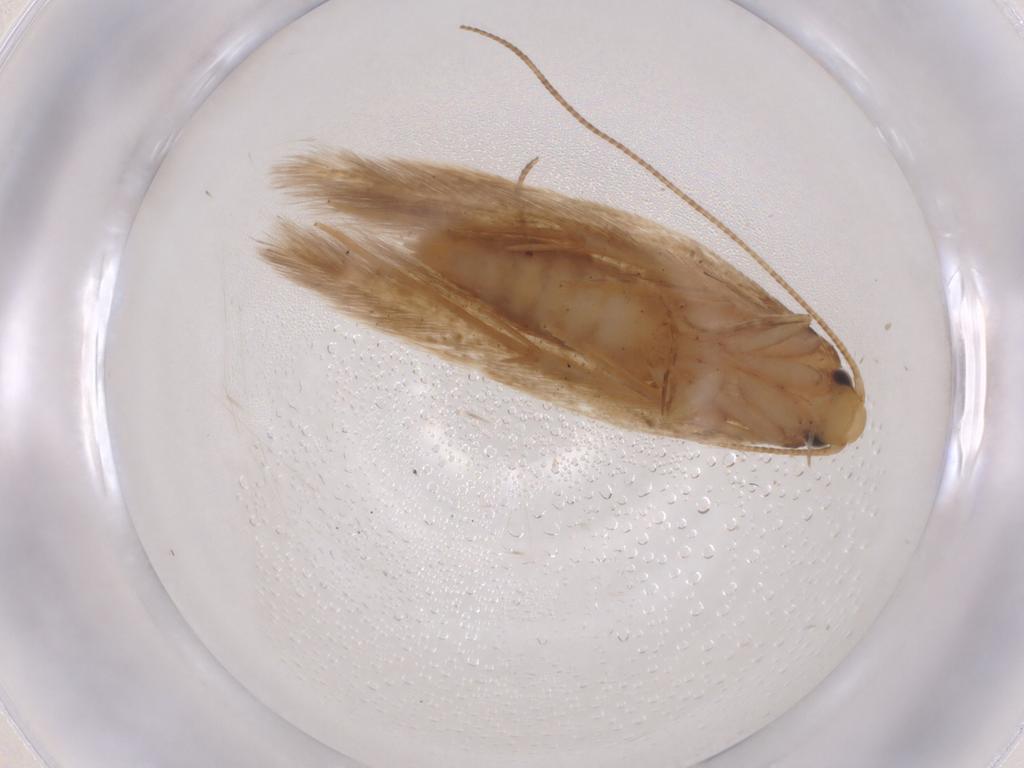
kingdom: Animalia
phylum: Arthropoda
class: Insecta
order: Lepidoptera
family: Tineidae
